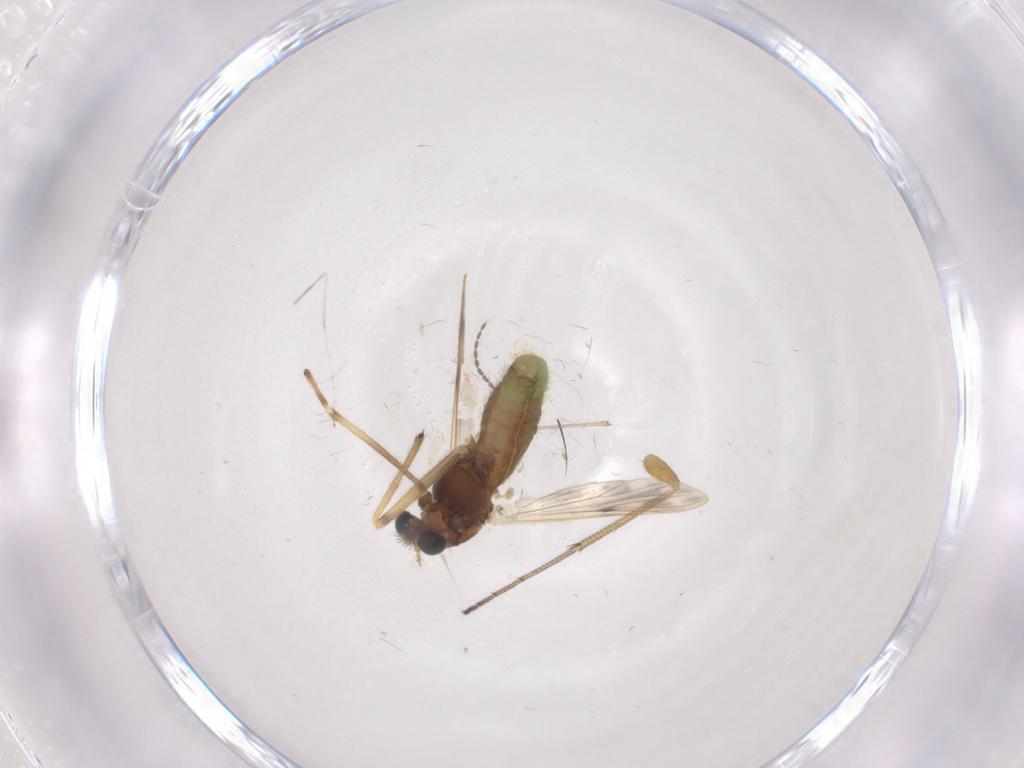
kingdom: Animalia
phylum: Arthropoda
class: Insecta
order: Diptera
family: Chironomidae
